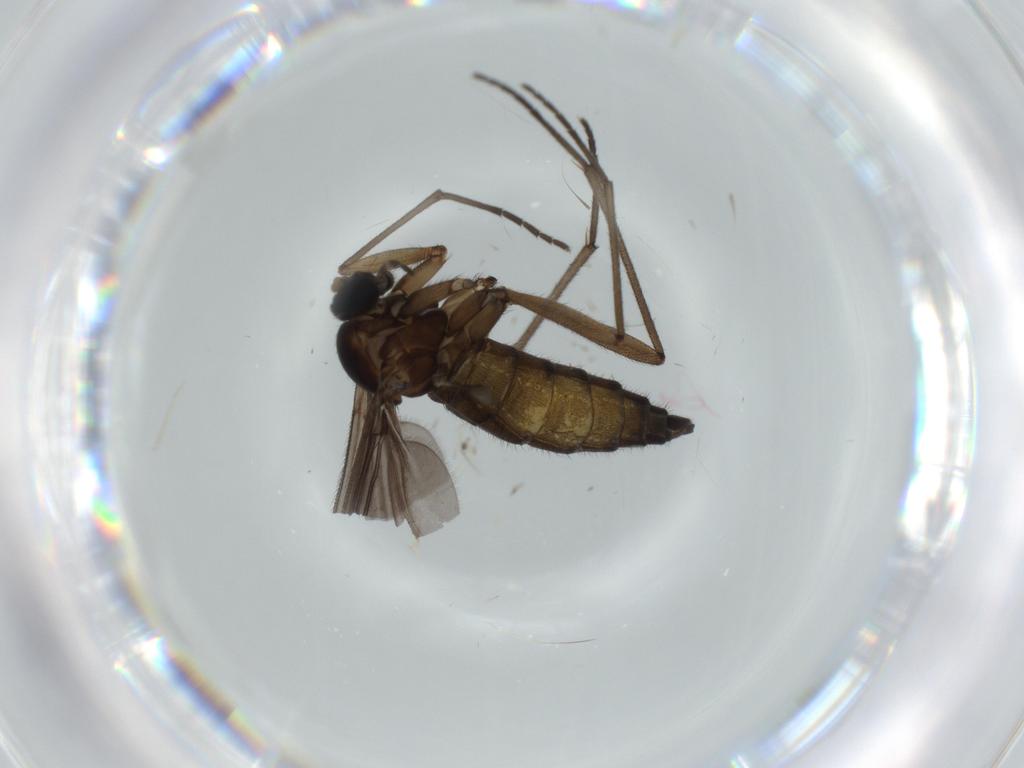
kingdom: Animalia
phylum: Arthropoda
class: Insecta
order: Diptera
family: Sciaridae
